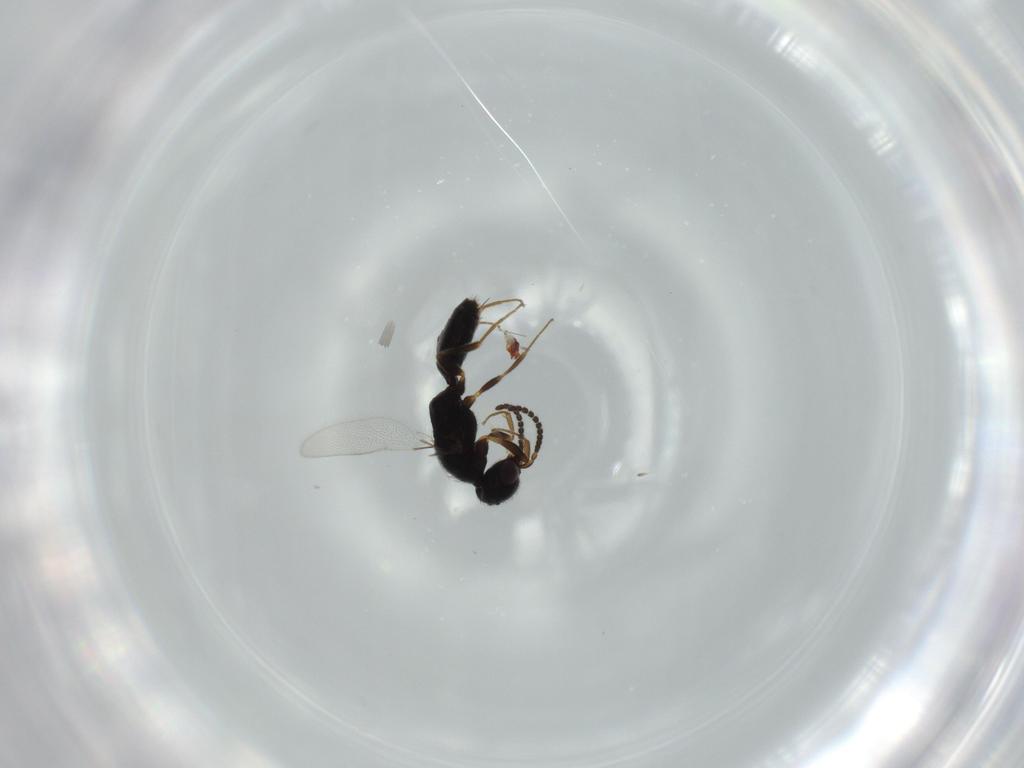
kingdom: Animalia
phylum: Arthropoda
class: Insecta
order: Hymenoptera
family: Bethylidae
